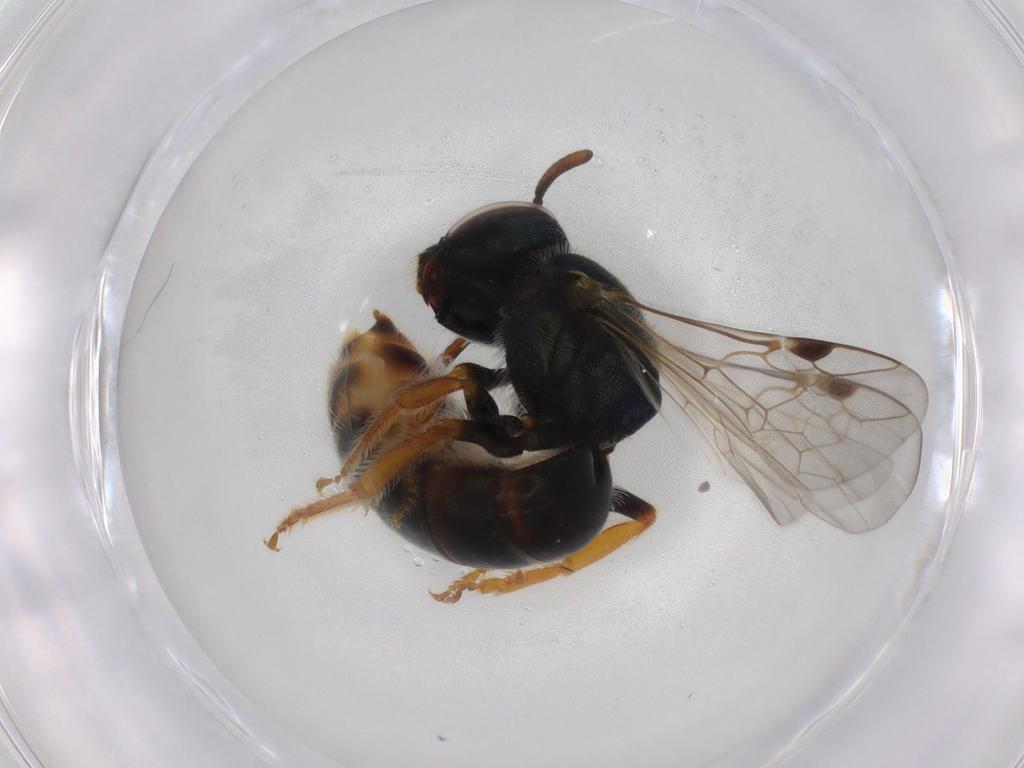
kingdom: Animalia
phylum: Arthropoda
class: Insecta
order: Hymenoptera
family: Halictidae
